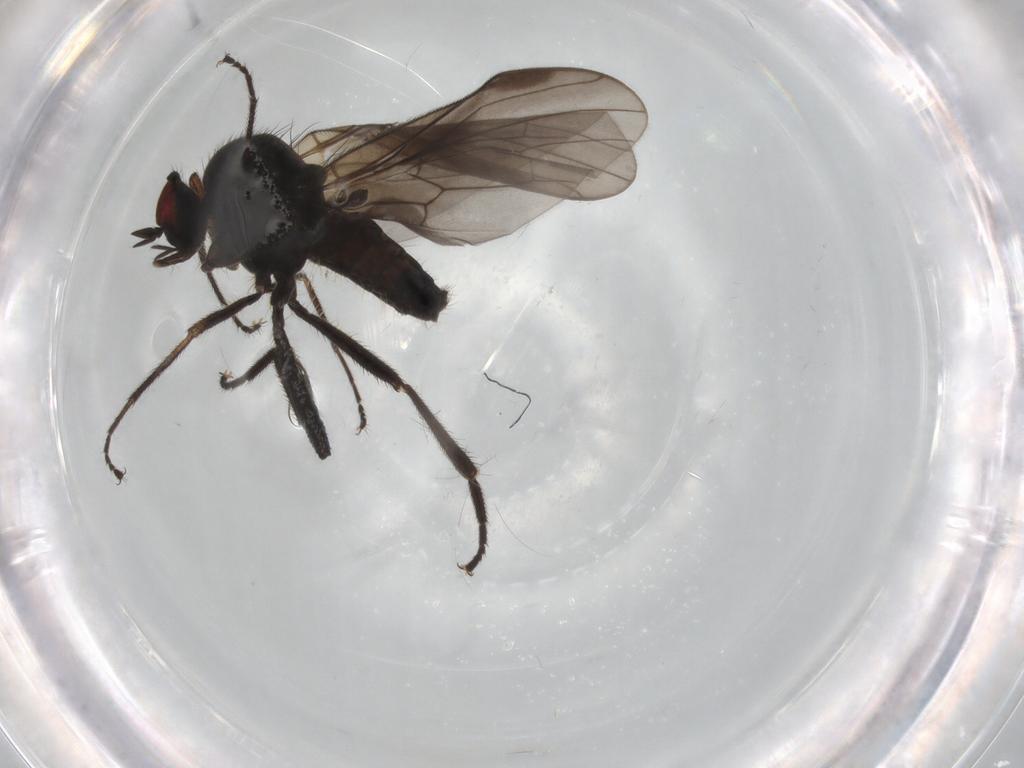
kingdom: Animalia
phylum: Arthropoda
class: Insecta
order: Diptera
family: Hybotidae
